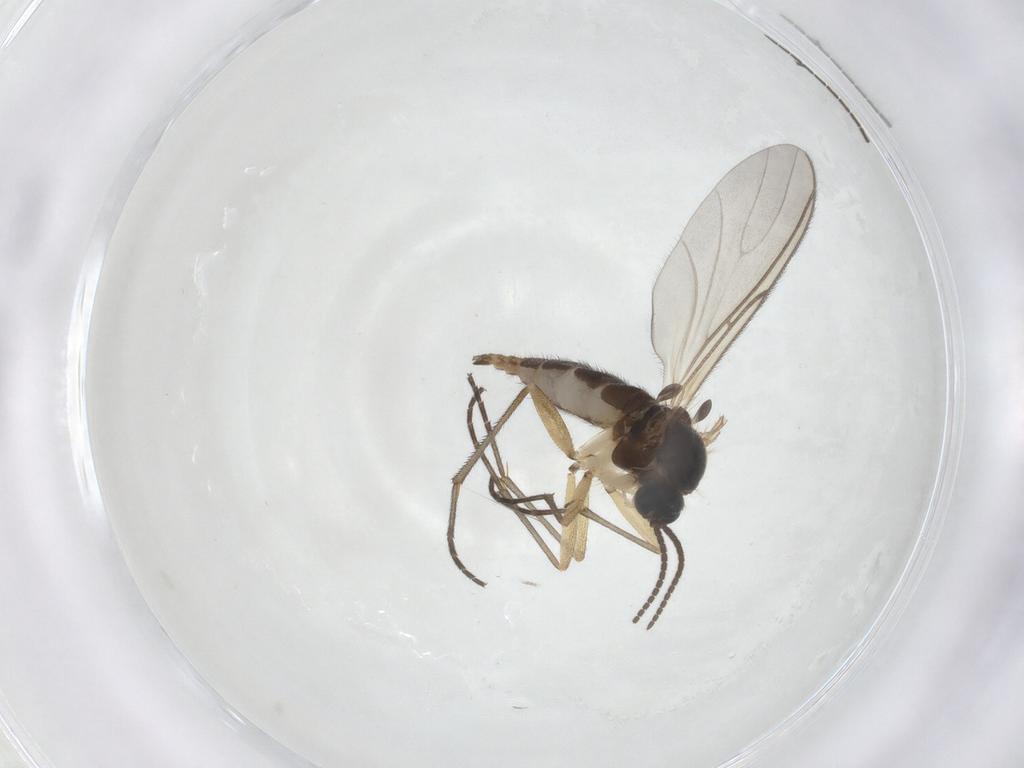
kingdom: Animalia
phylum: Arthropoda
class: Insecta
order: Diptera
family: Sciaridae
